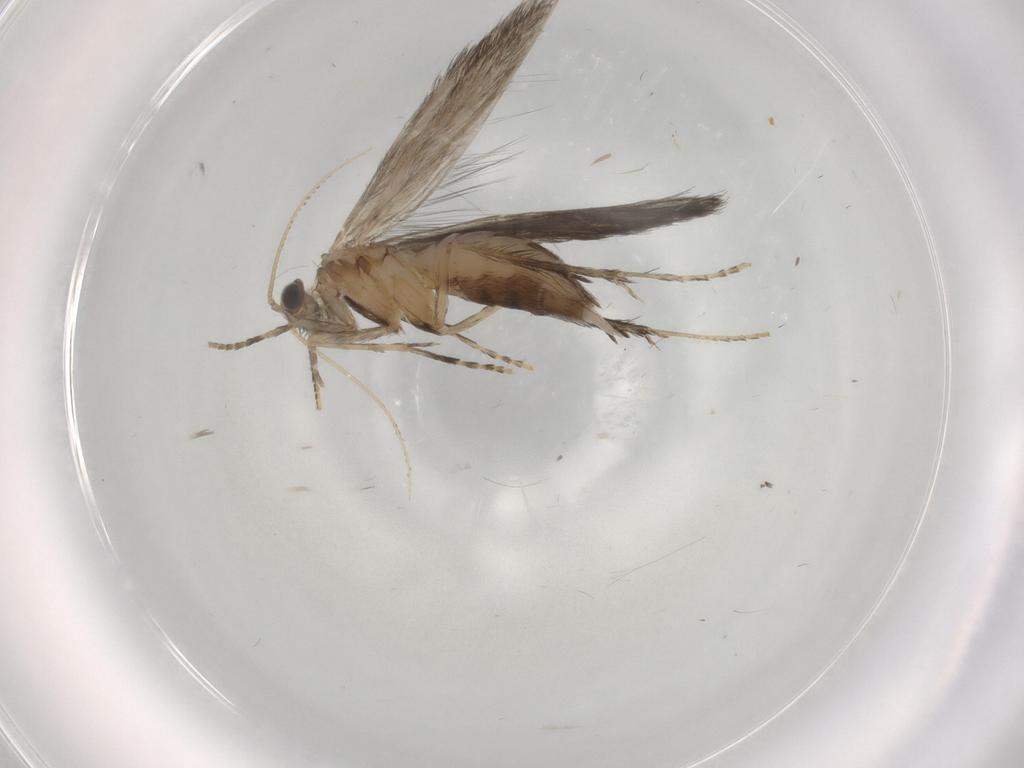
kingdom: Animalia
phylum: Arthropoda
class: Insecta
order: Trichoptera
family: Hydroptilidae
